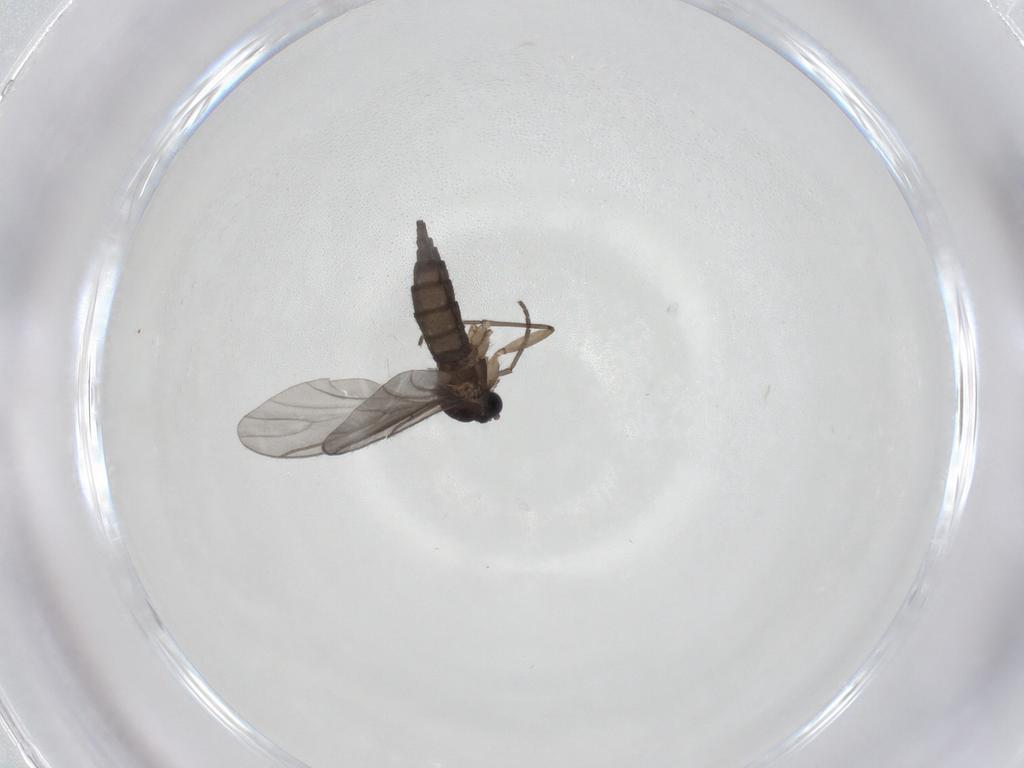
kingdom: Animalia
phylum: Arthropoda
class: Insecta
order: Diptera
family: Sciaridae
